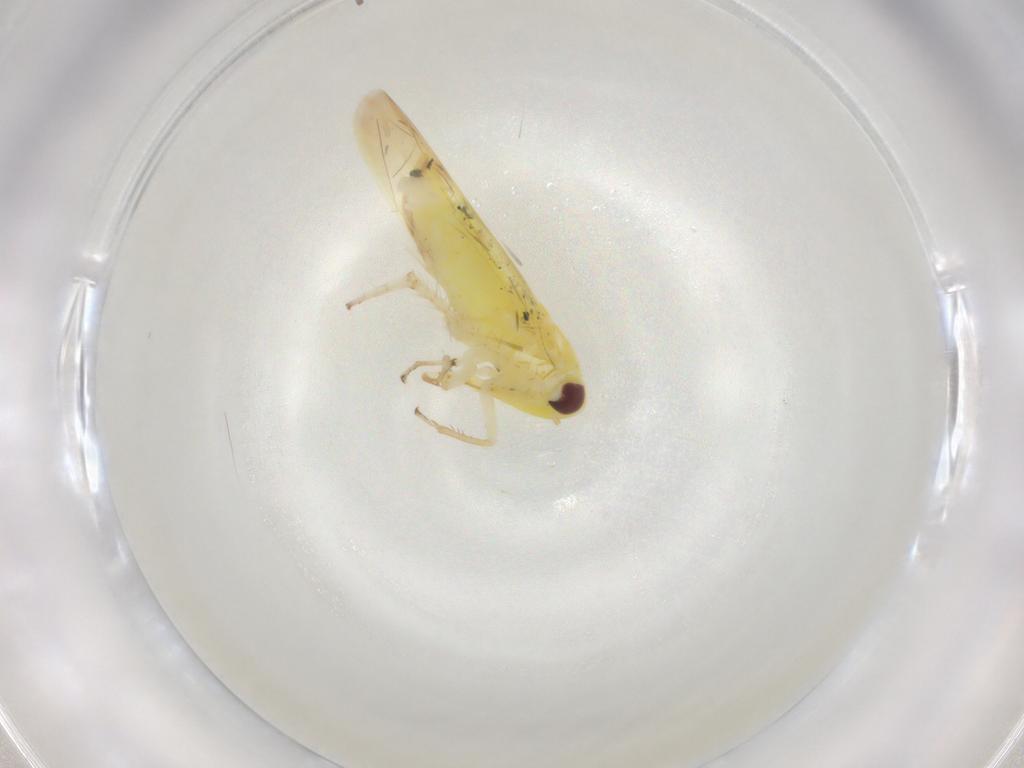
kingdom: Animalia
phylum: Arthropoda
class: Insecta
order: Hemiptera
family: Cicadellidae
